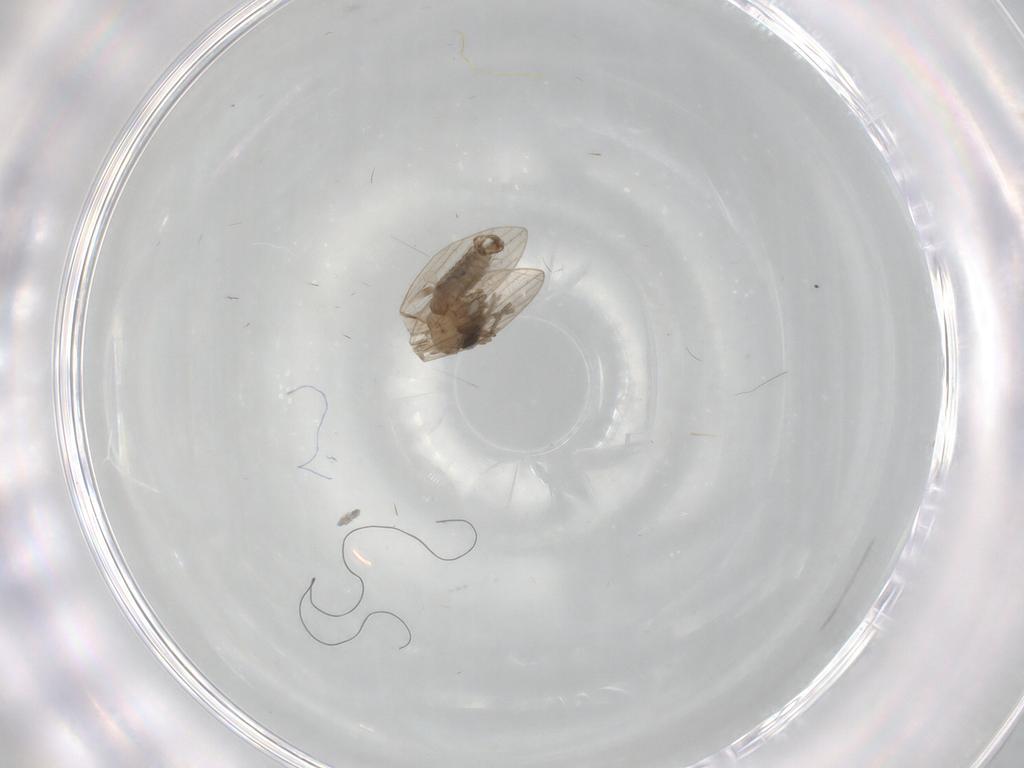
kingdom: Animalia
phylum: Arthropoda
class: Insecta
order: Diptera
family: Psychodidae
